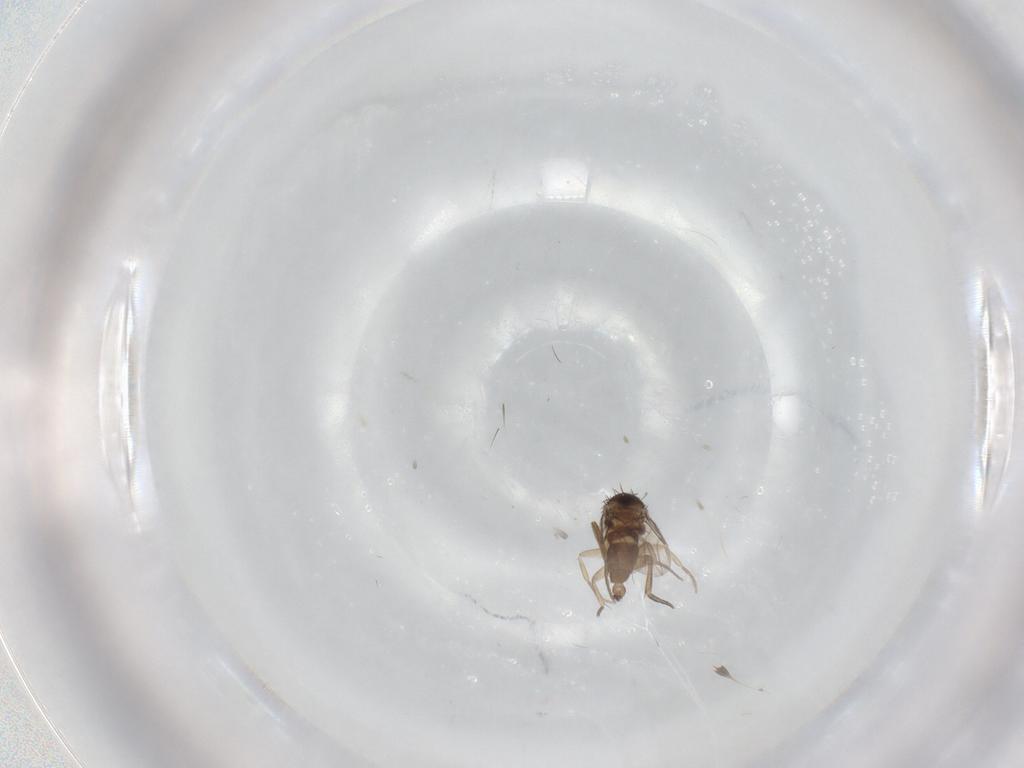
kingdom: Animalia
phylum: Arthropoda
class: Insecta
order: Diptera
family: Phoridae
